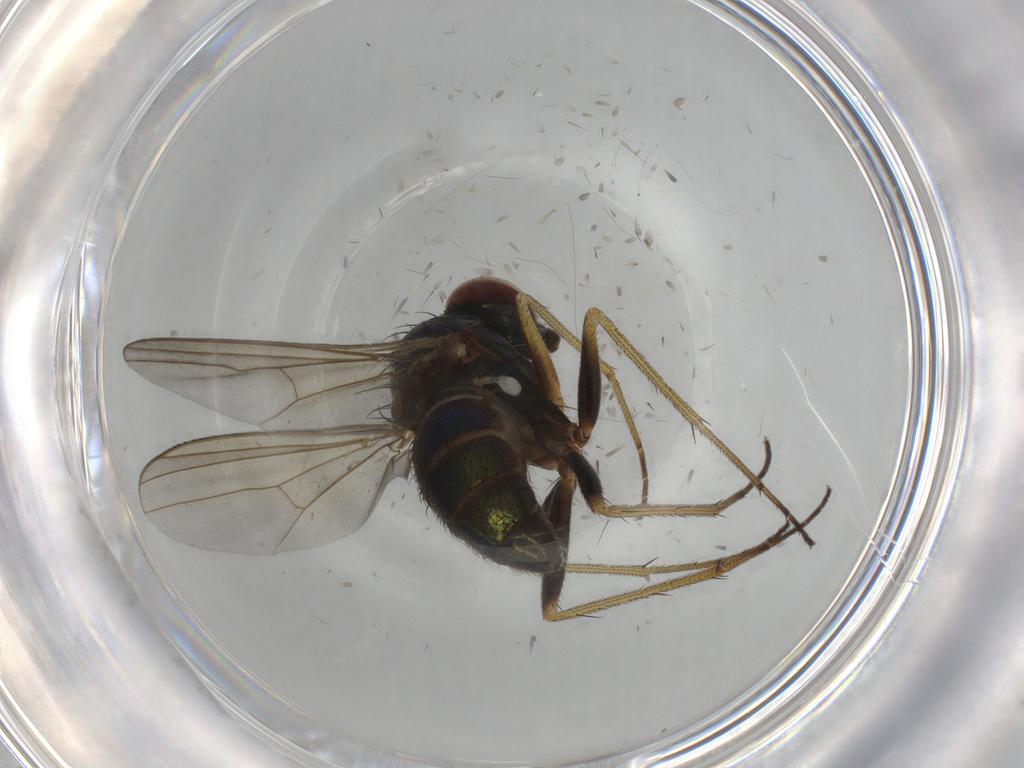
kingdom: Animalia
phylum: Arthropoda
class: Insecta
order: Diptera
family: Dolichopodidae
